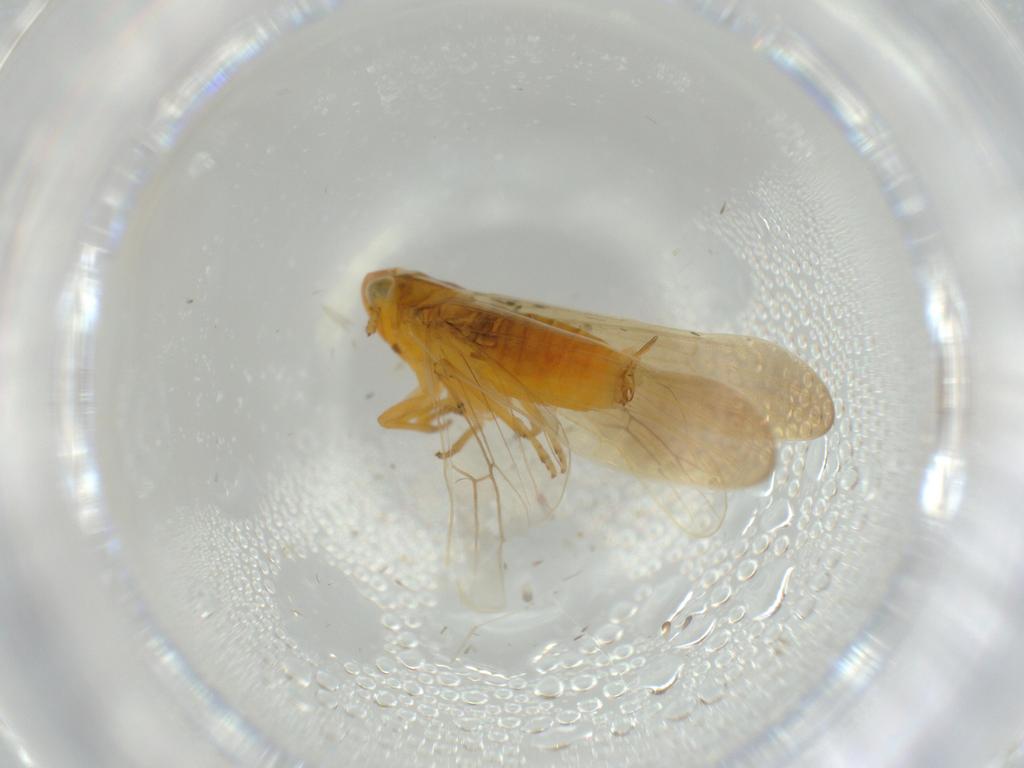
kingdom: Animalia
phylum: Arthropoda
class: Insecta
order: Hemiptera
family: Delphacidae
